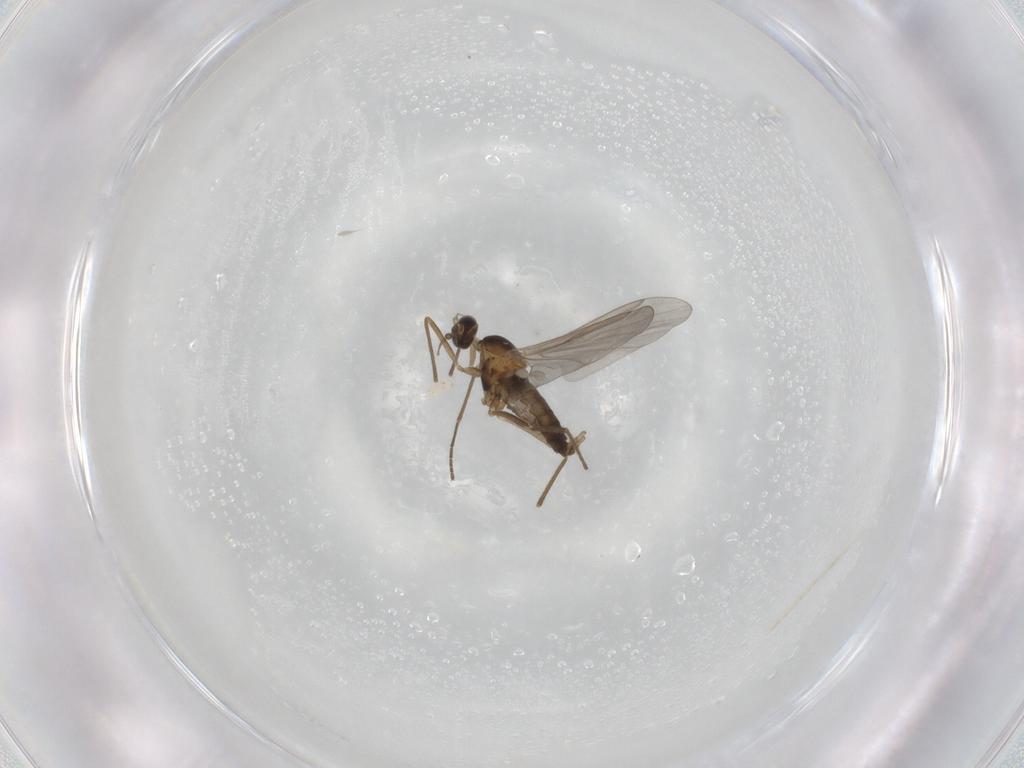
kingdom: Animalia
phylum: Arthropoda
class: Insecta
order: Diptera
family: Cecidomyiidae
